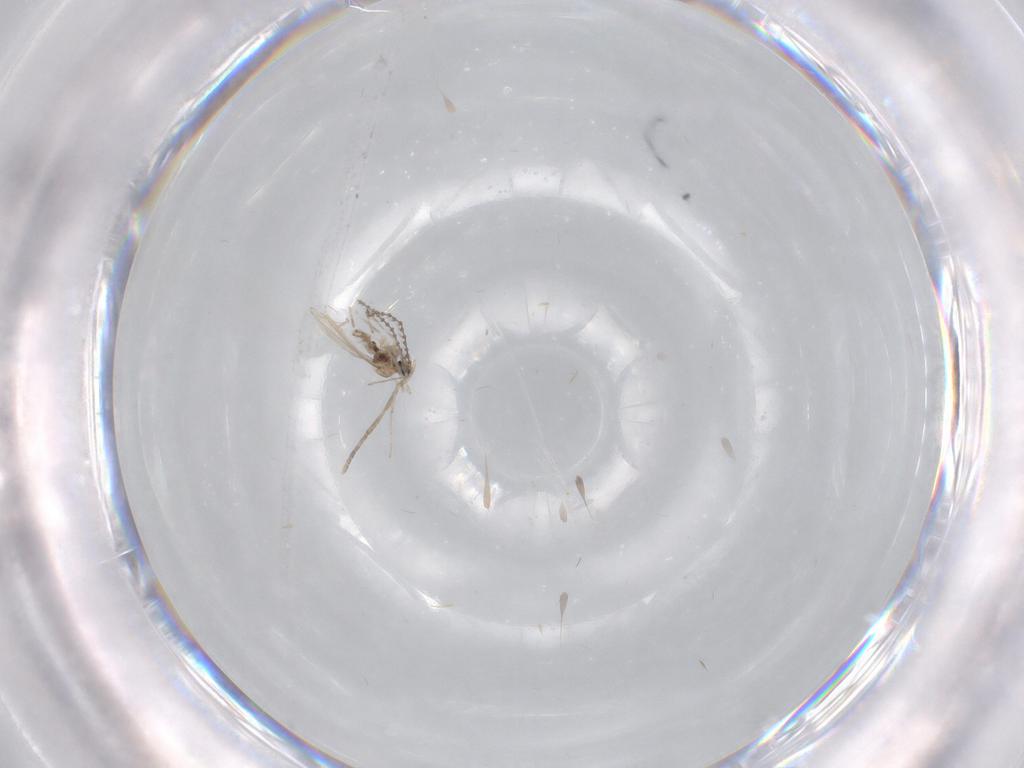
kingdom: Animalia
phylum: Arthropoda
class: Insecta
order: Diptera
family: Cecidomyiidae
